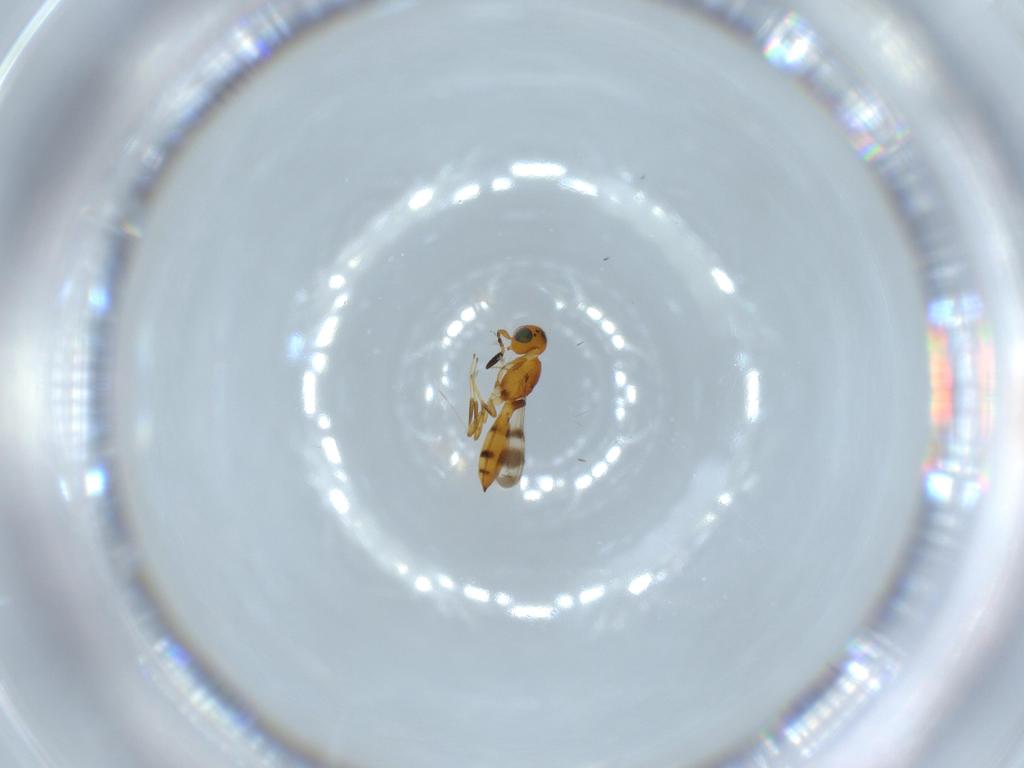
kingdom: Animalia
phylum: Arthropoda
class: Insecta
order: Hymenoptera
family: Scelionidae
